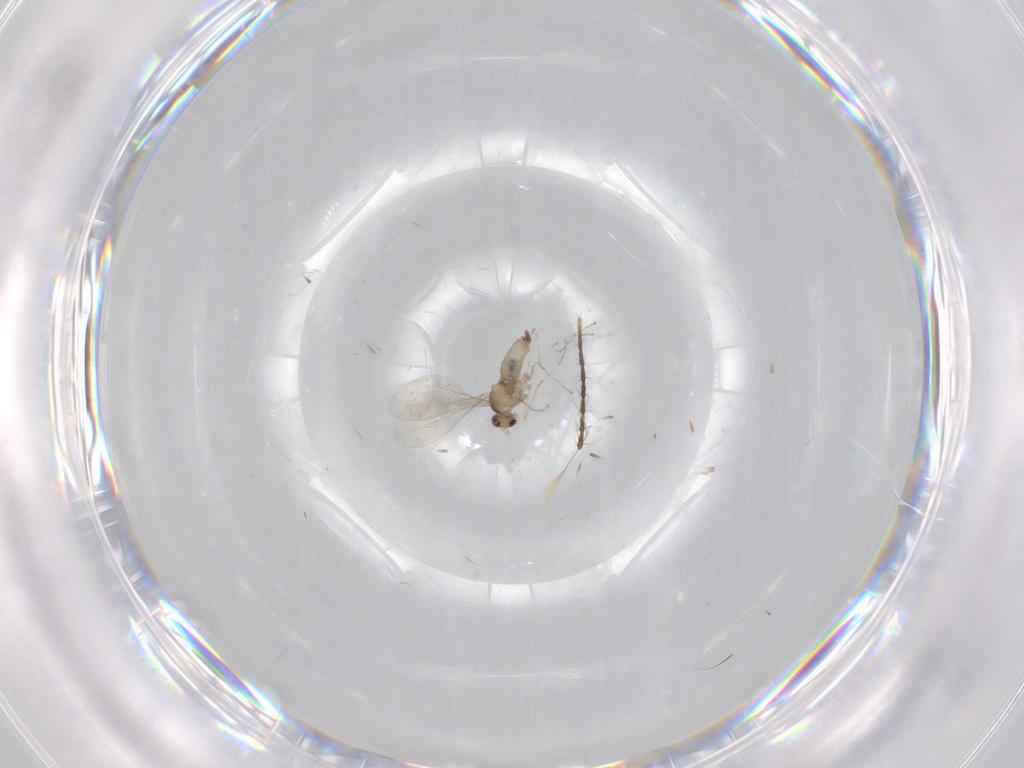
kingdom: Animalia
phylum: Arthropoda
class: Insecta
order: Diptera
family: Cecidomyiidae
